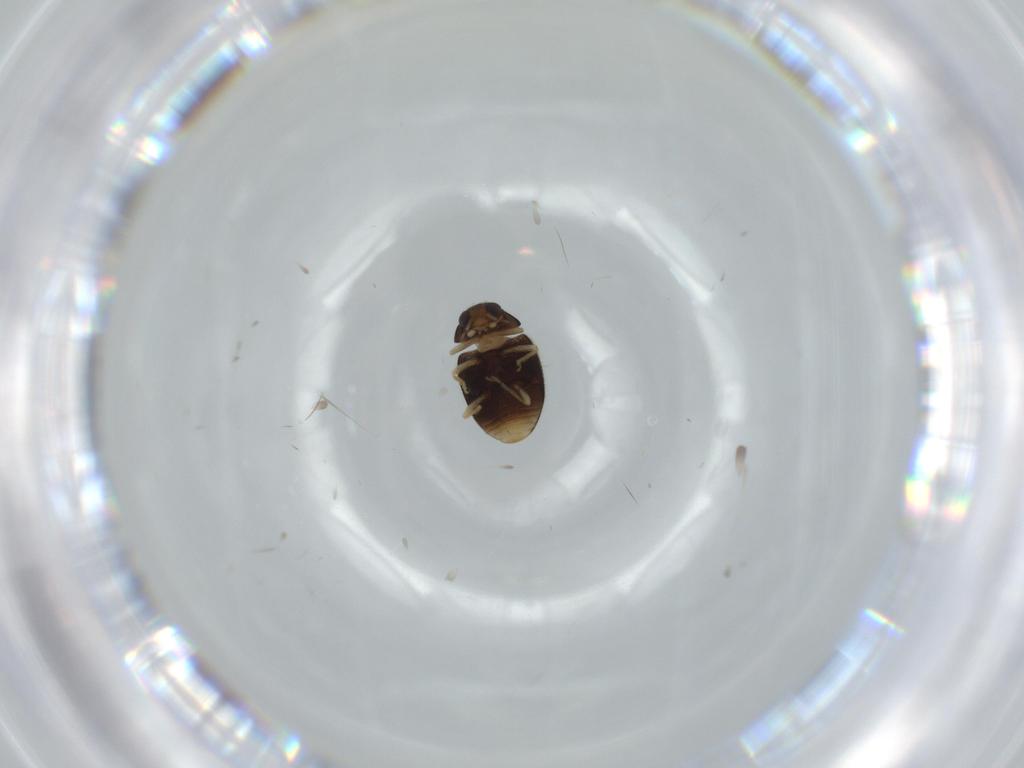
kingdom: Animalia
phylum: Arthropoda
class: Insecta
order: Coleoptera
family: Coccinellidae
